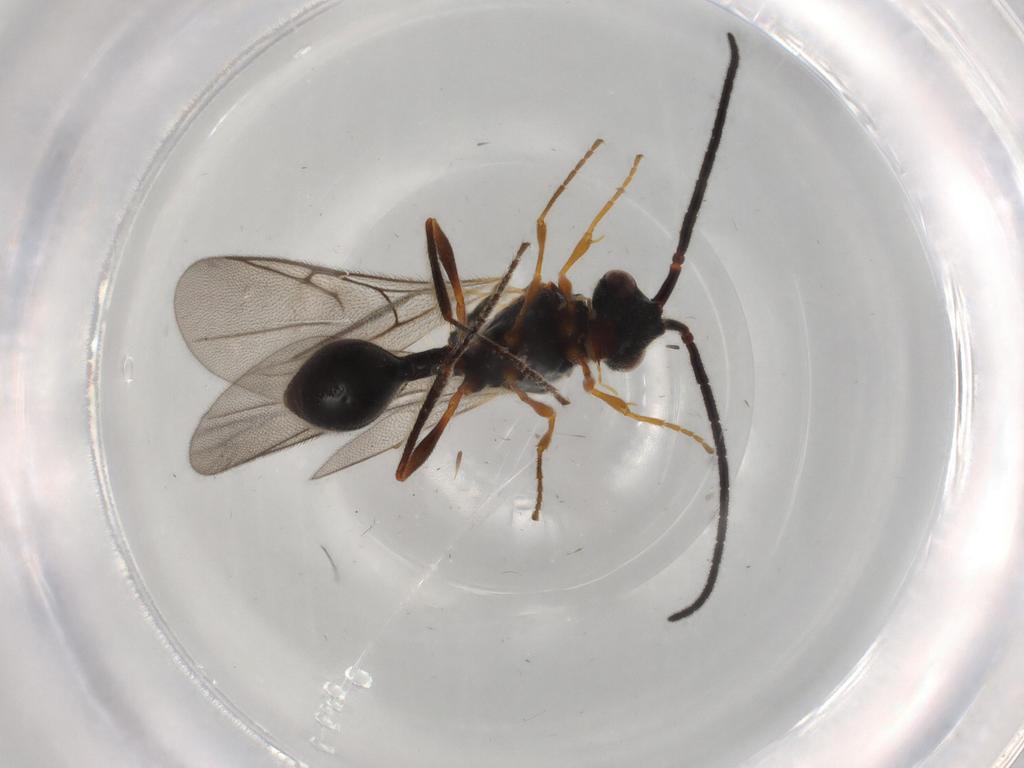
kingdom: Animalia
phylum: Arthropoda
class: Insecta
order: Hymenoptera
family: Diapriidae
